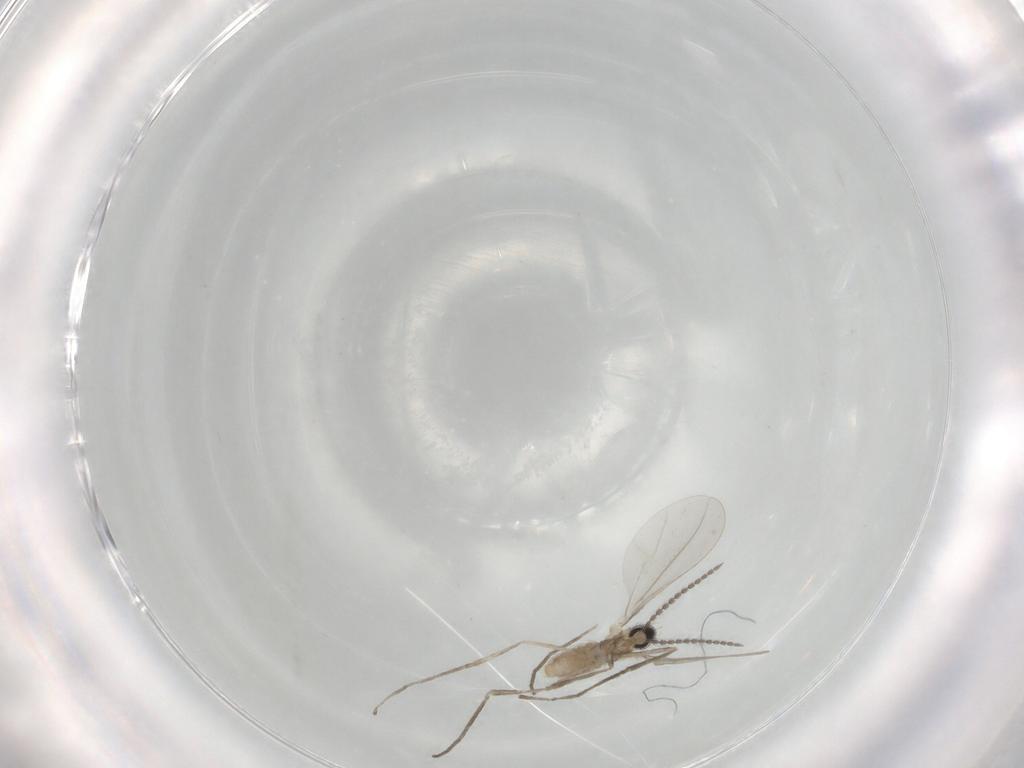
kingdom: Animalia
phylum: Arthropoda
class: Insecta
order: Diptera
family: Cecidomyiidae
